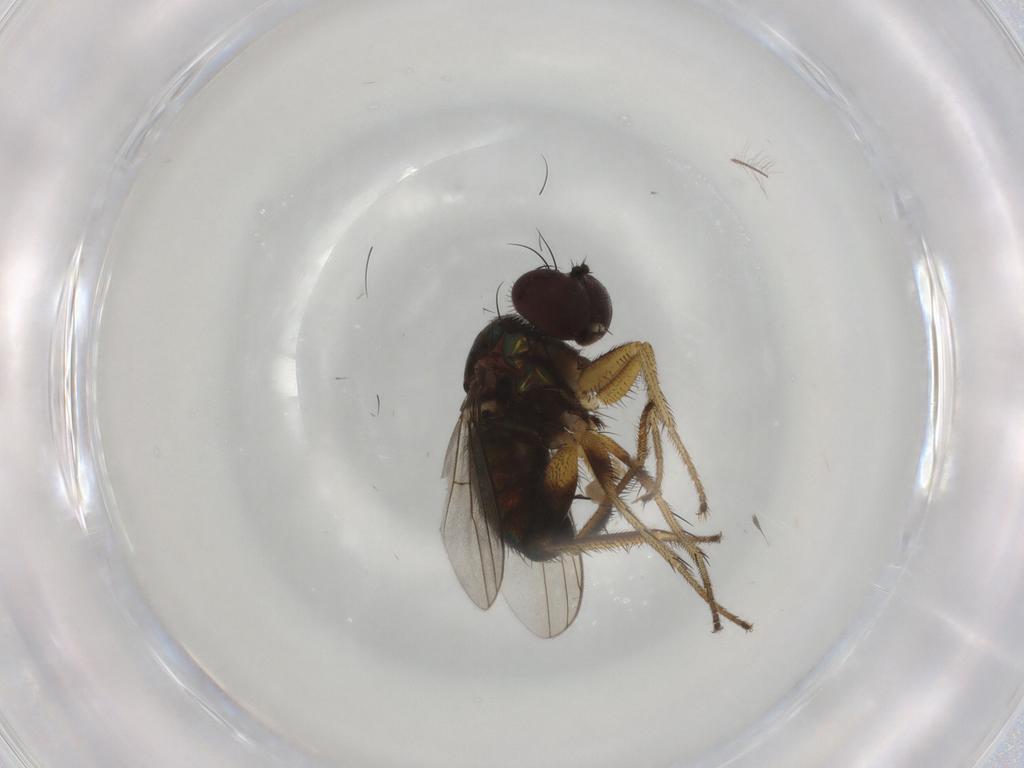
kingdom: Animalia
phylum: Arthropoda
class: Insecta
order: Diptera
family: Dolichopodidae
